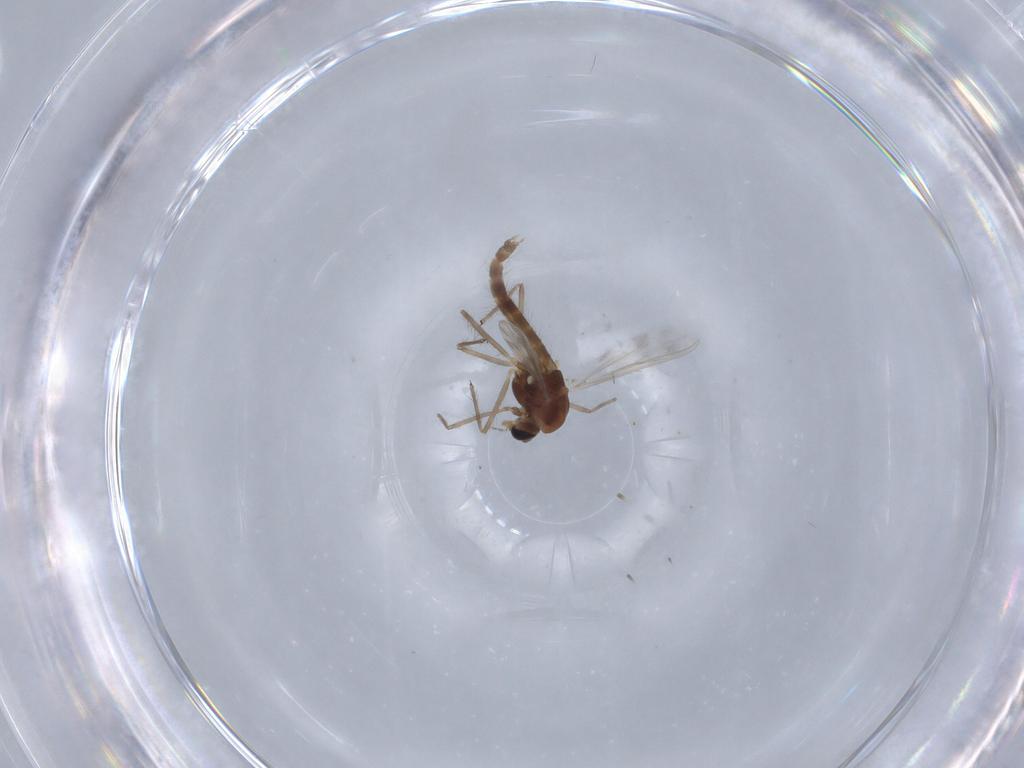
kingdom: Animalia
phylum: Arthropoda
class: Insecta
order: Diptera
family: Chironomidae
